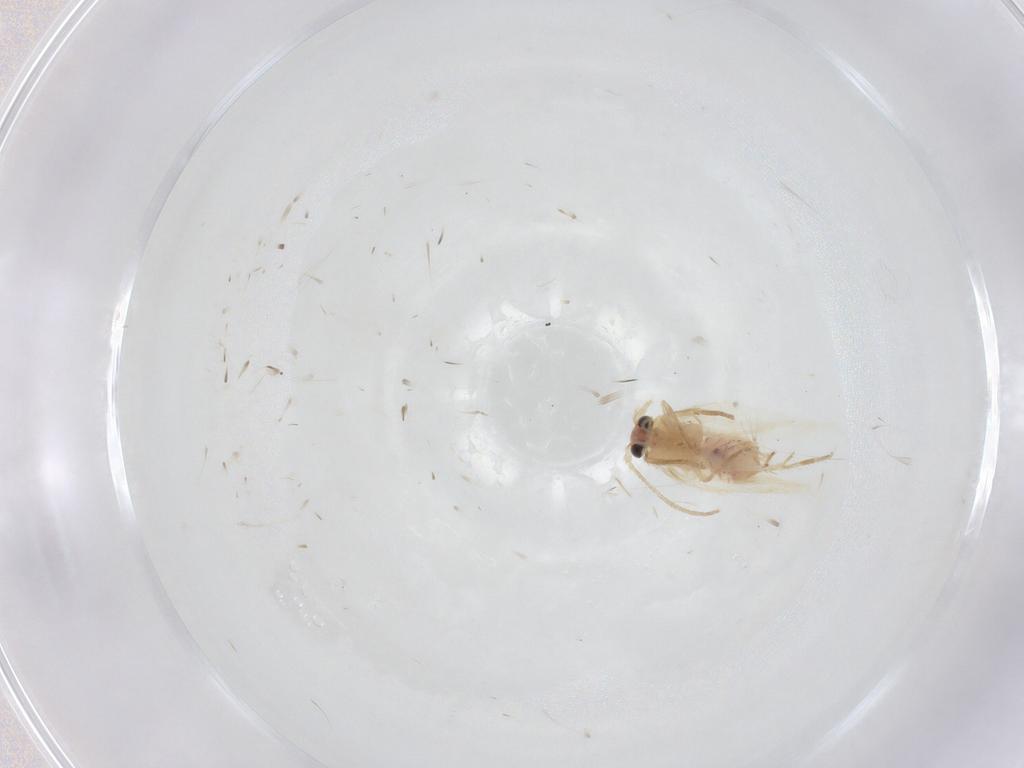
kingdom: Animalia
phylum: Arthropoda
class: Insecta
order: Lepidoptera
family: Nepticulidae
